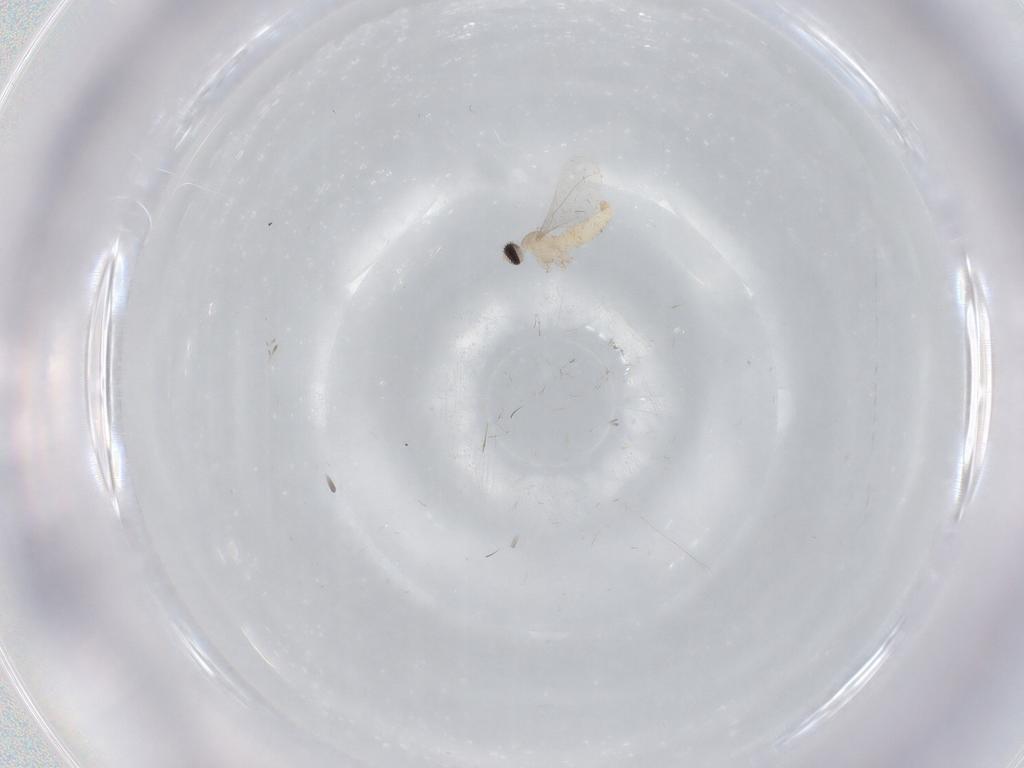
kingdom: Animalia
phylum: Arthropoda
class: Insecta
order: Diptera
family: Cecidomyiidae
